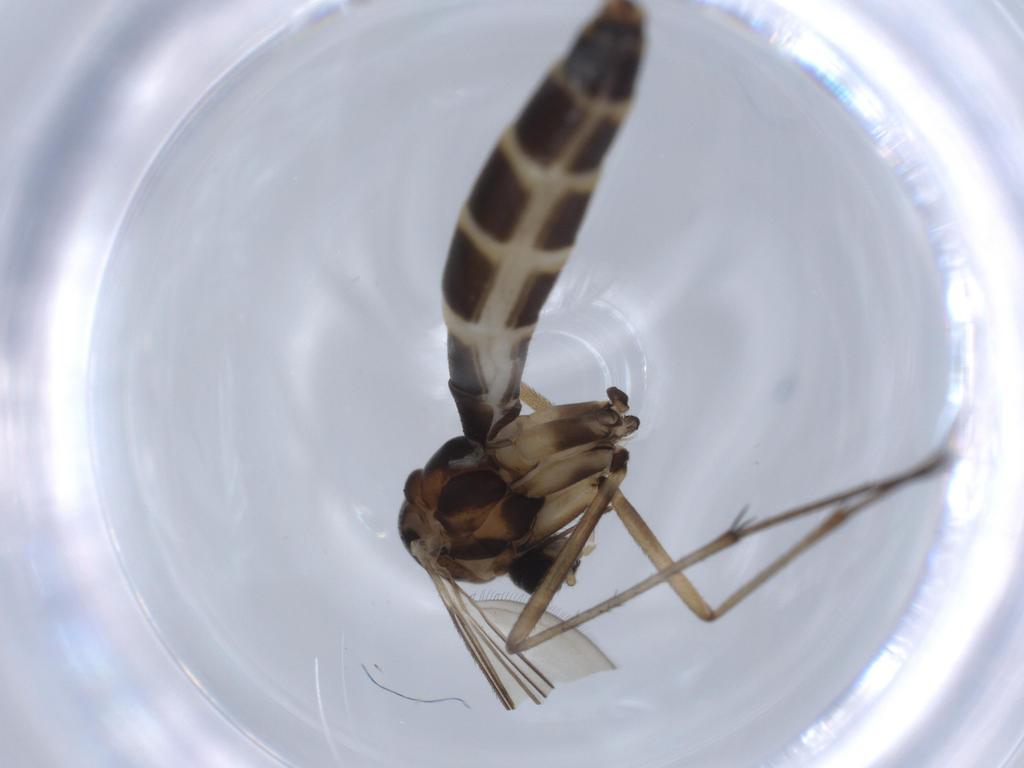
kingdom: Animalia
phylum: Arthropoda
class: Insecta
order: Diptera
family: Mycetophilidae
